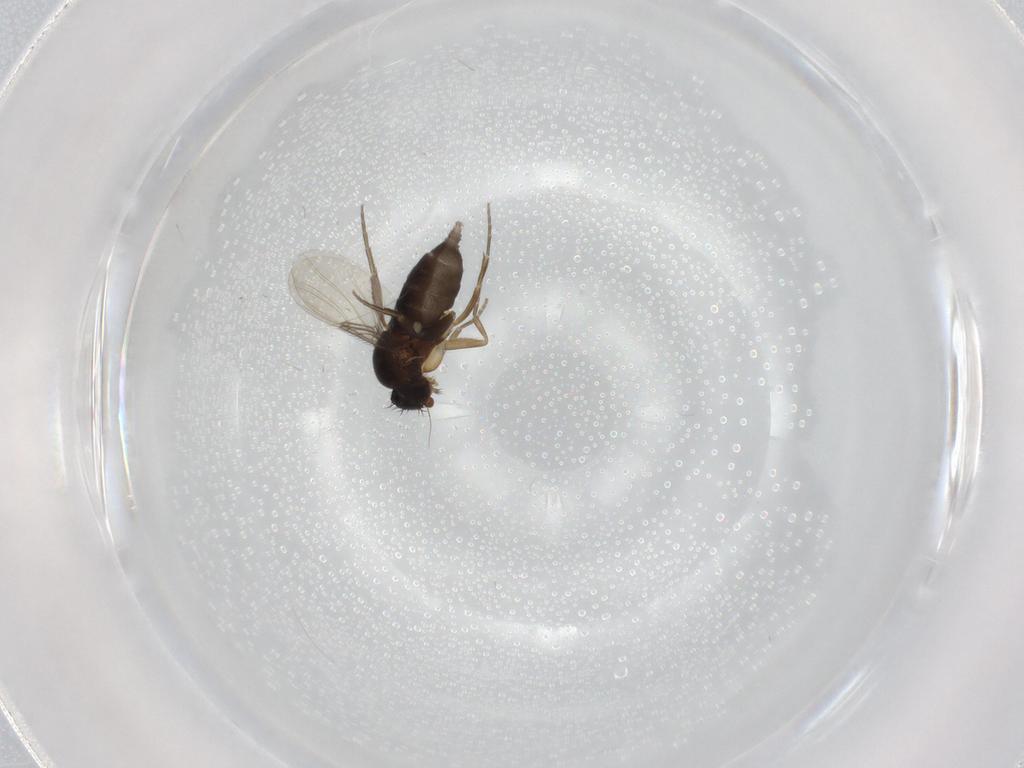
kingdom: Animalia
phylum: Arthropoda
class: Insecta
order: Diptera
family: Phoridae
